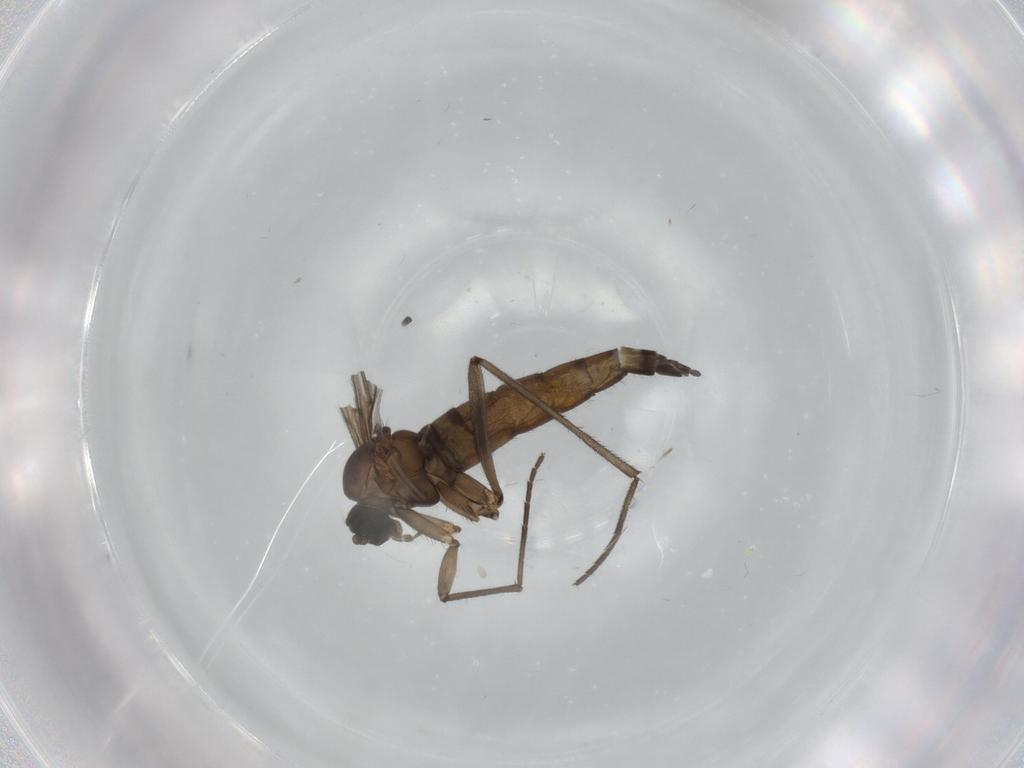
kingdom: Animalia
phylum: Arthropoda
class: Insecta
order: Diptera
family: Sciaridae
